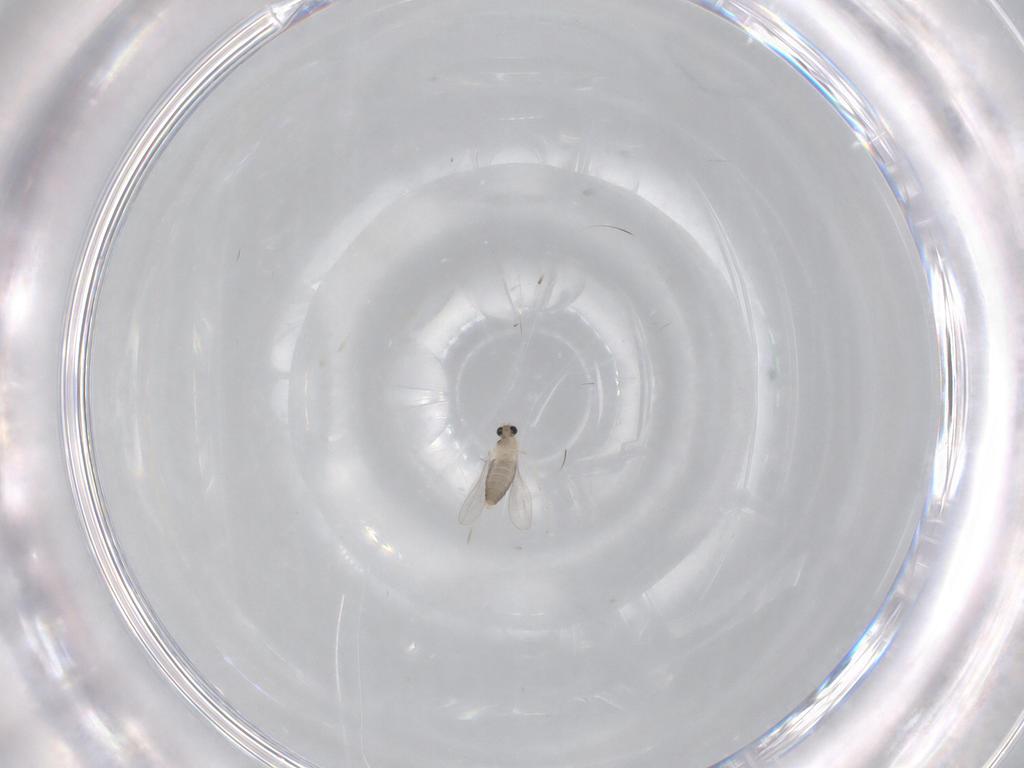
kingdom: Animalia
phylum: Arthropoda
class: Insecta
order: Diptera
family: Cecidomyiidae
